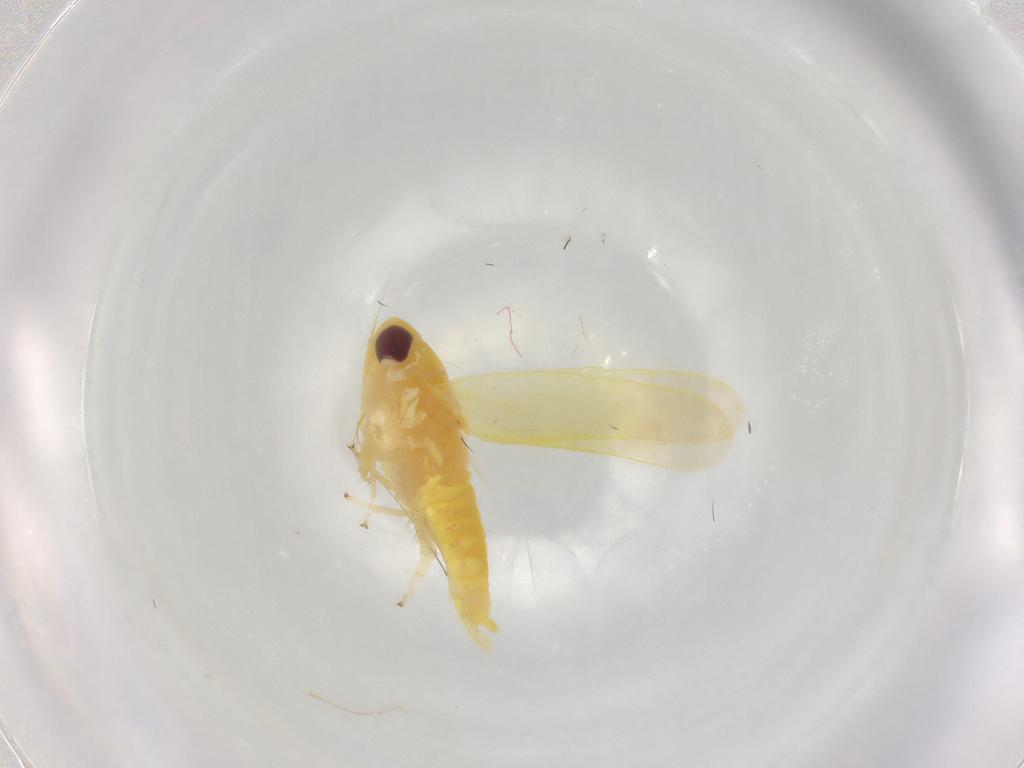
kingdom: Animalia
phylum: Arthropoda
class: Insecta
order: Hemiptera
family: Cicadellidae
